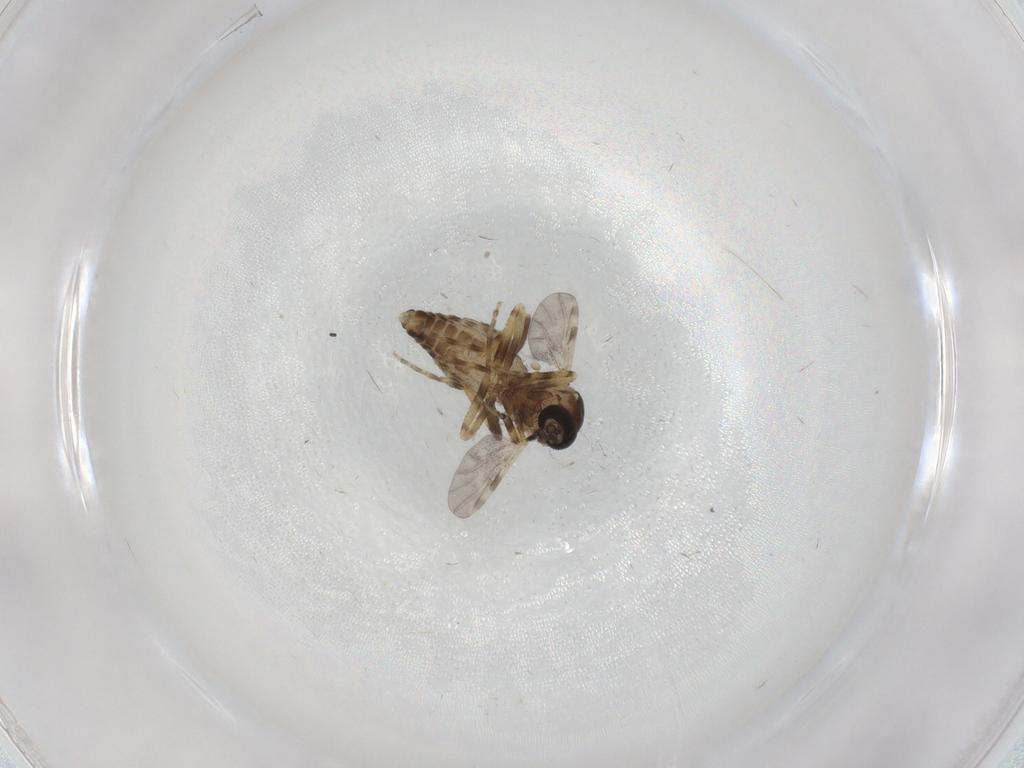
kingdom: Animalia
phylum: Arthropoda
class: Insecta
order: Diptera
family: Ceratopogonidae
